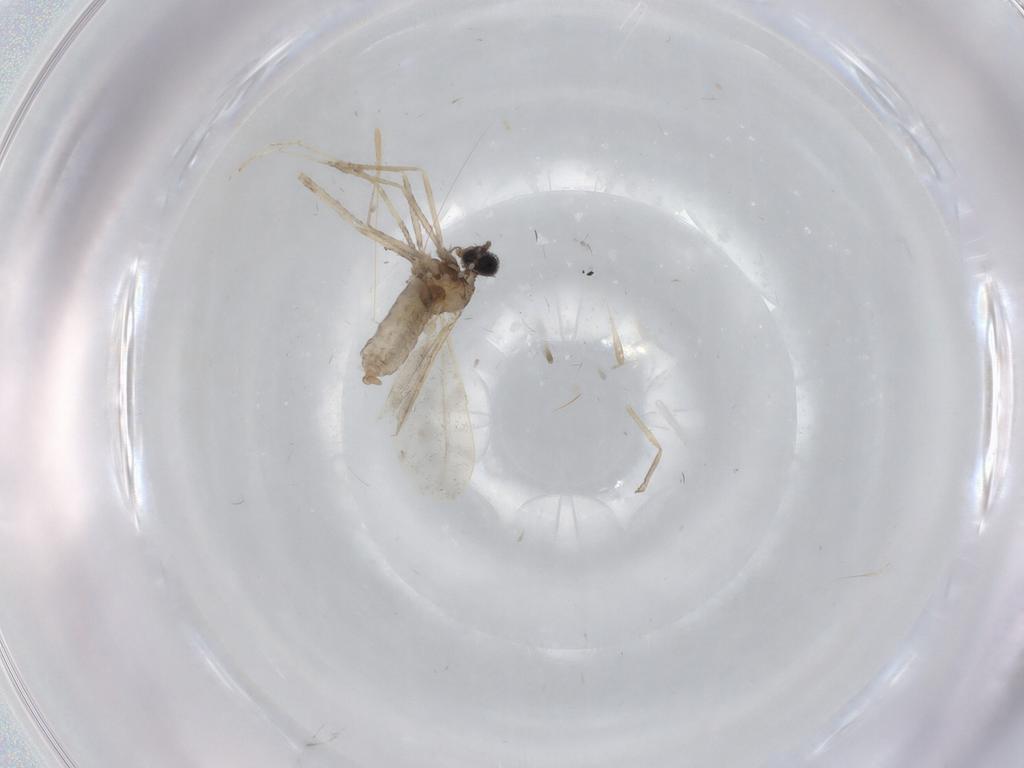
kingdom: Animalia
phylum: Arthropoda
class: Insecta
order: Diptera
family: Cecidomyiidae
